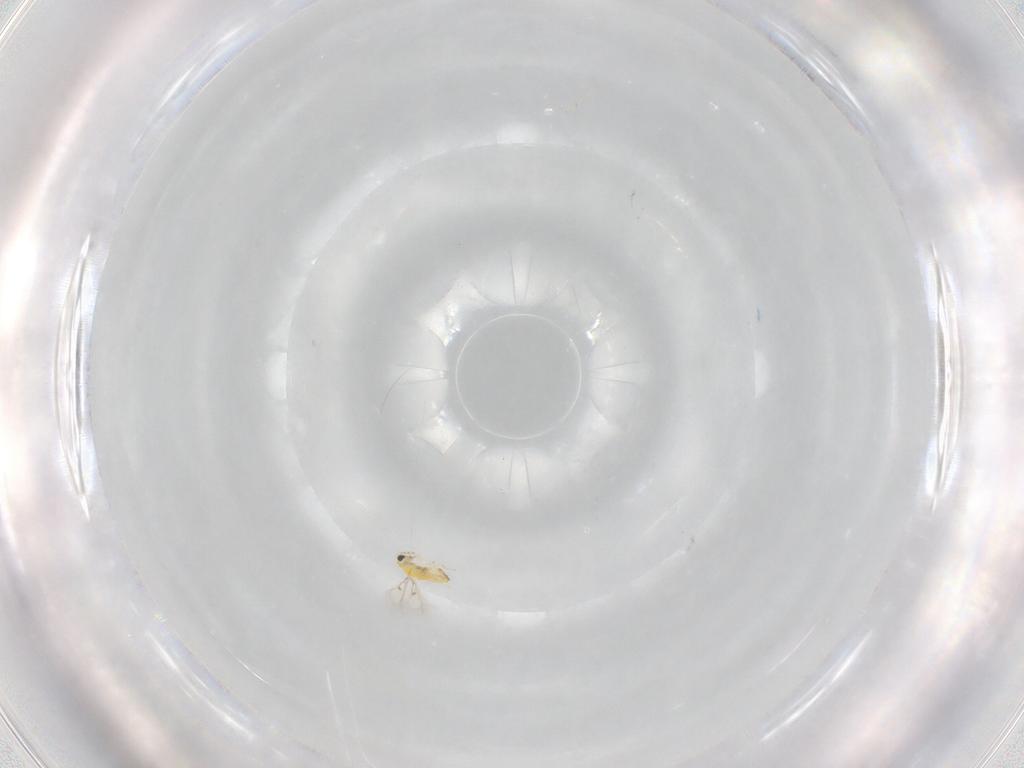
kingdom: Animalia
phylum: Arthropoda
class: Insecta
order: Hymenoptera
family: Trichogrammatidae
